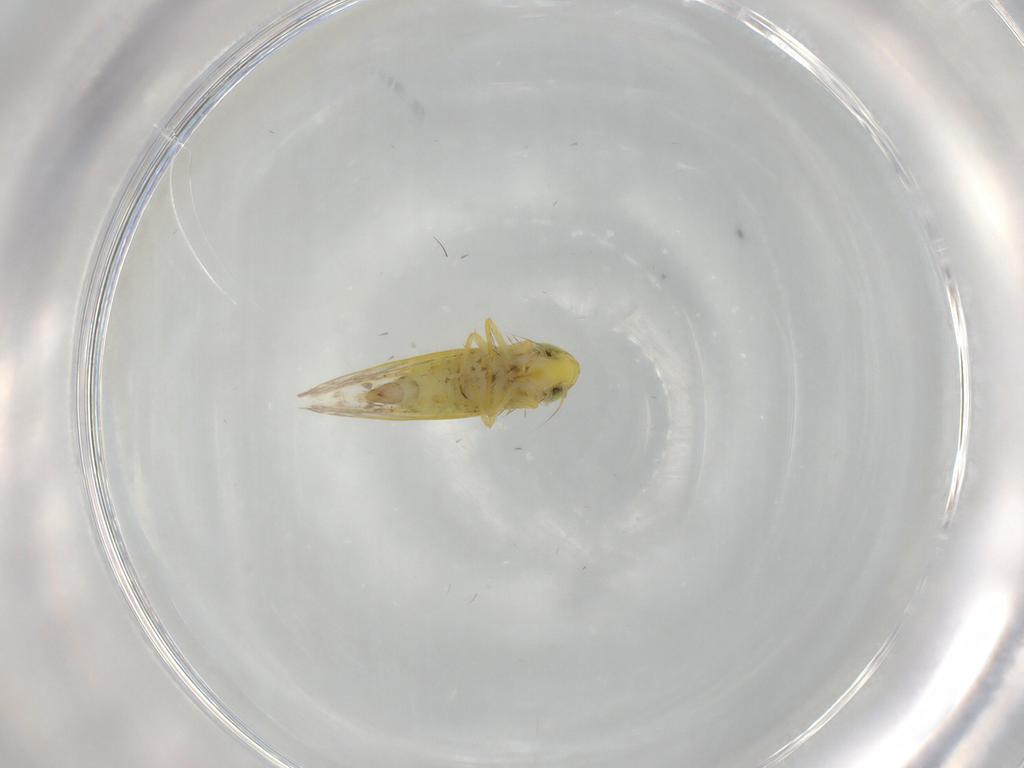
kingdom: Animalia
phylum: Arthropoda
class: Insecta
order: Hemiptera
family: Cicadellidae
